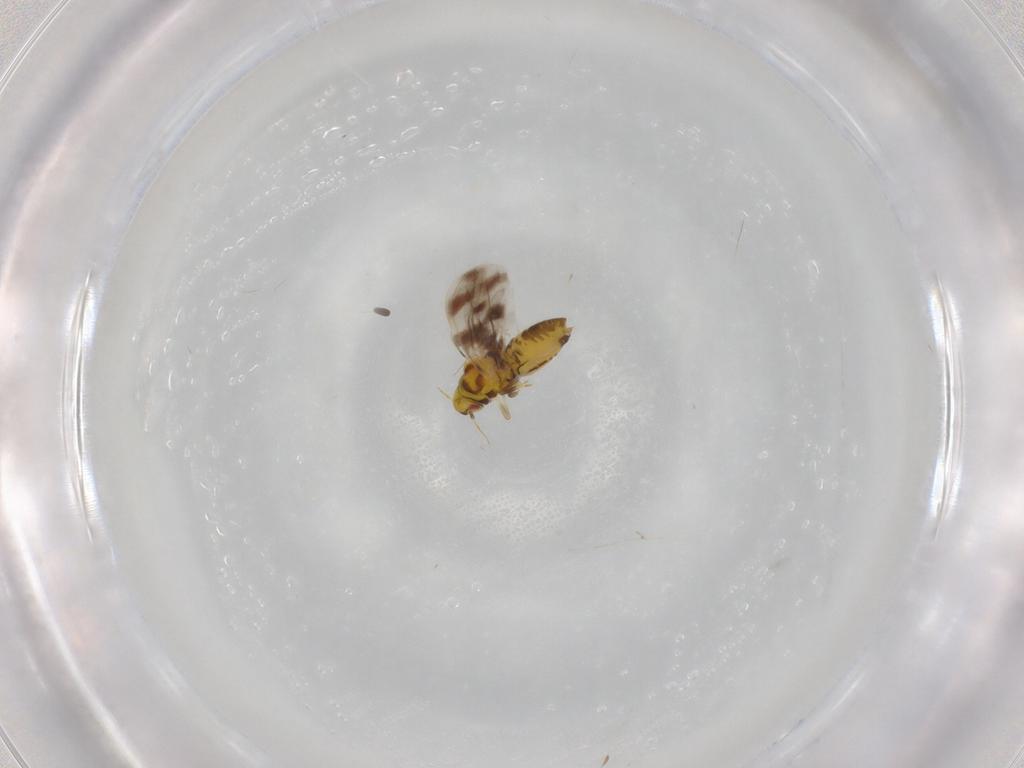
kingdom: Animalia
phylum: Arthropoda
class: Insecta
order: Hemiptera
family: Aleyrodidae
